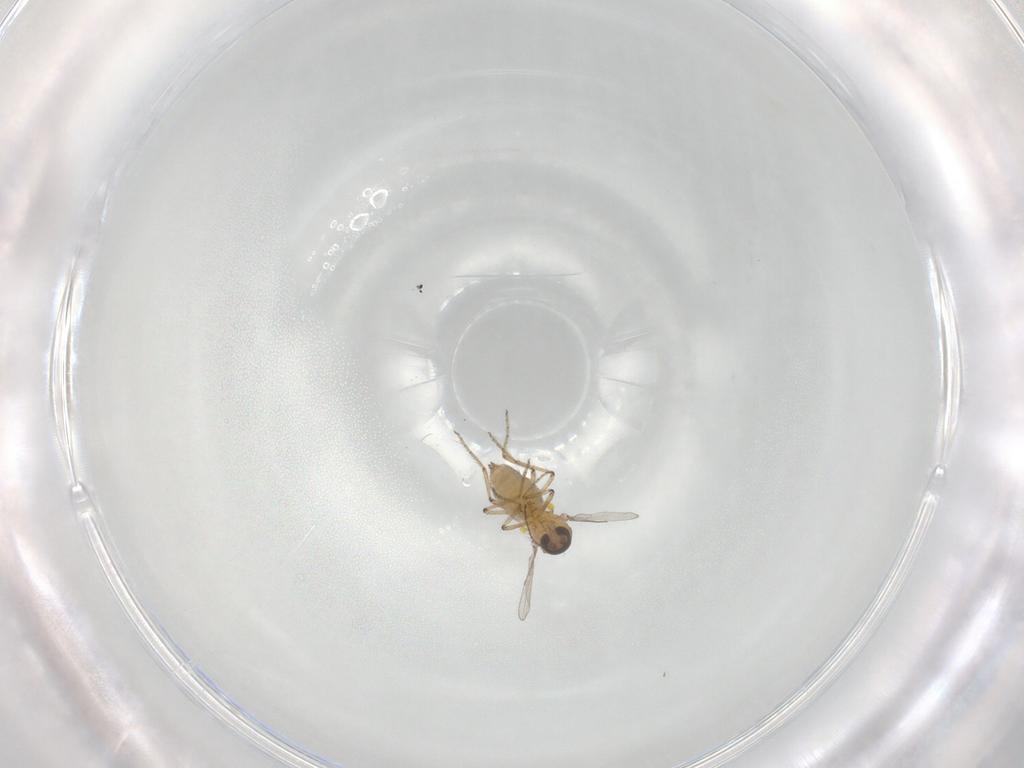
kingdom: Animalia
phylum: Arthropoda
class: Insecta
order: Diptera
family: Ceratopogonidae
